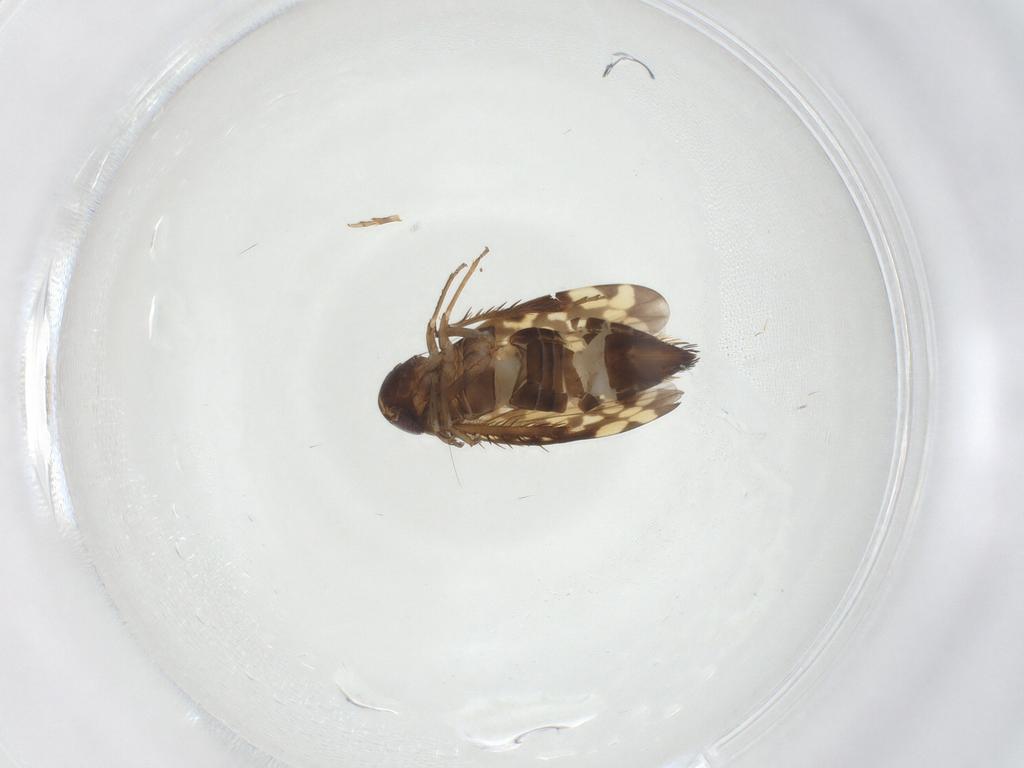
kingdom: Animalia
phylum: Arthropoda
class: Insecta
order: Hemiptera
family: Cicadellidae
